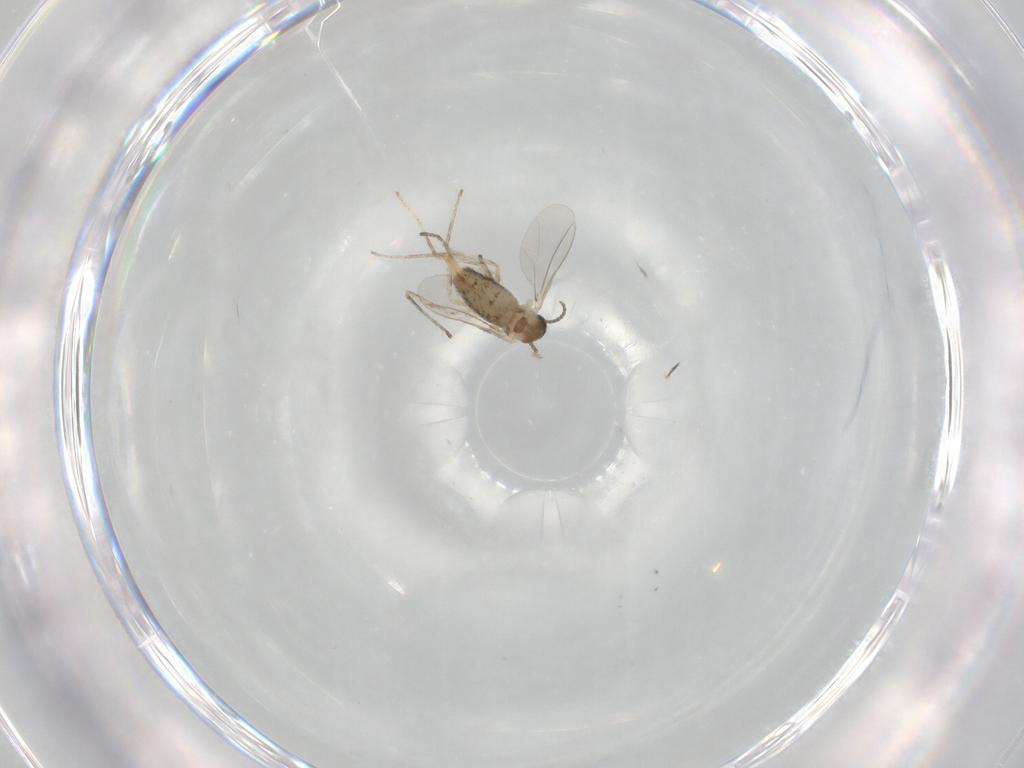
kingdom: Animalia
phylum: Arthropoda
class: Insecta
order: Diptera
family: Cecidomyiidae
